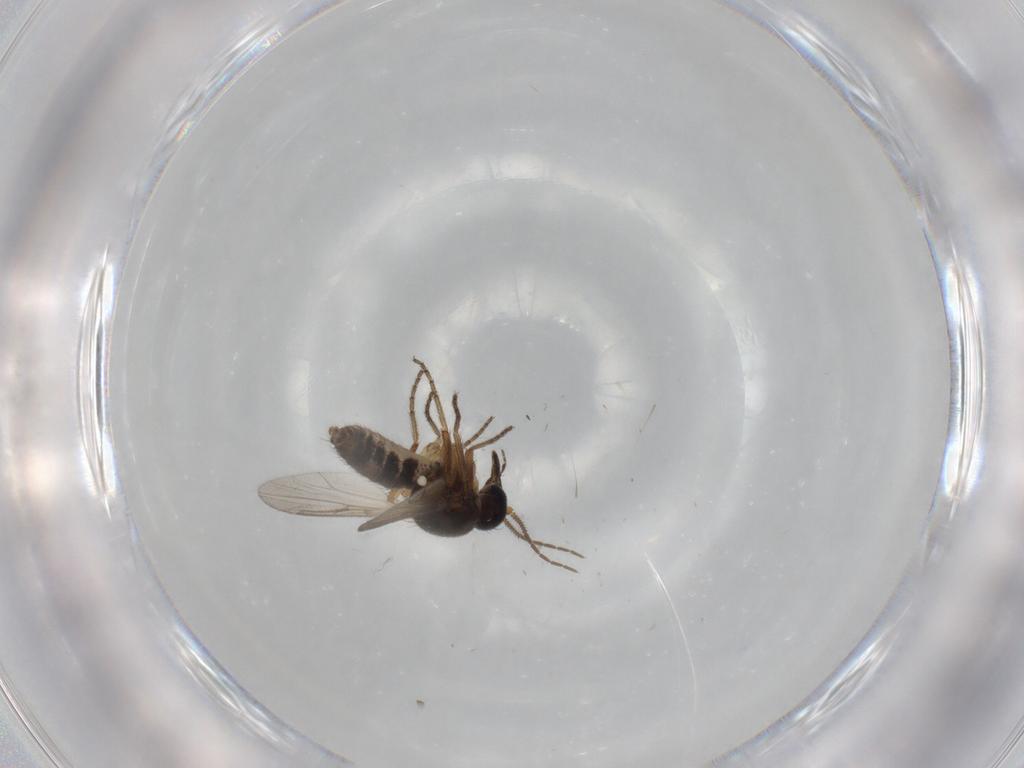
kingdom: Animalia
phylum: Arthropoda
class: Insecta
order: Diptera
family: Ceratopogonidae
